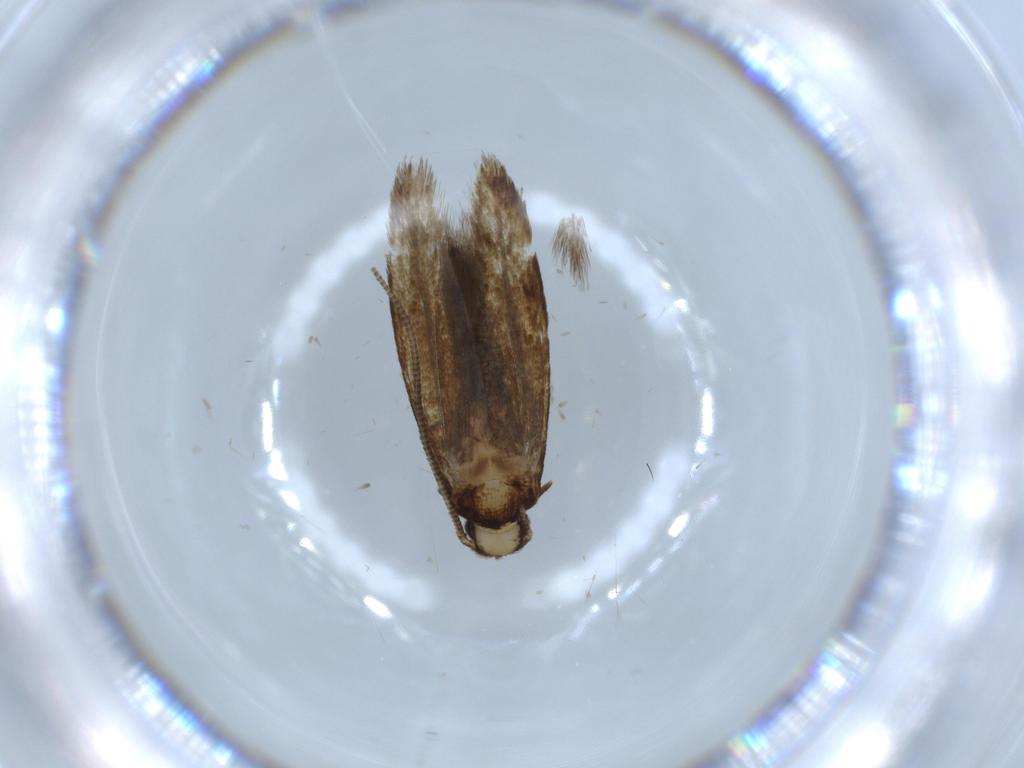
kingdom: Animalia
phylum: Arthropoda
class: Insecta
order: Lepidoptera
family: Tineidae
